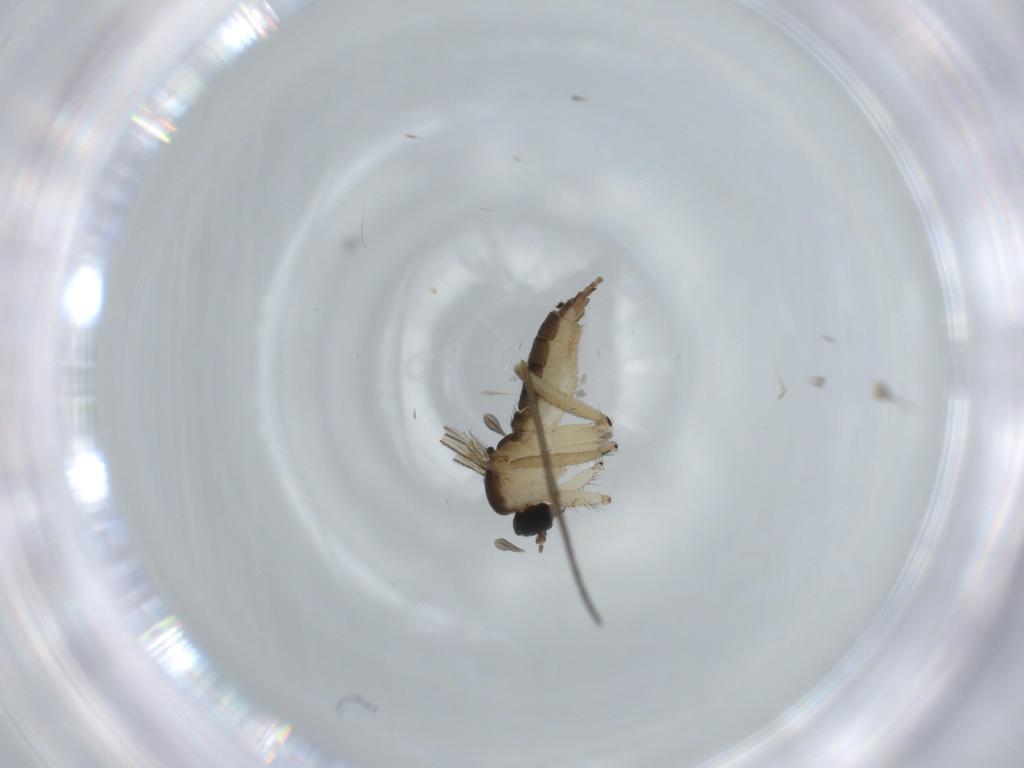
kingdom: Animalia
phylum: Arthropoda
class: Insecta
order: Diptera
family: Sciaridae
